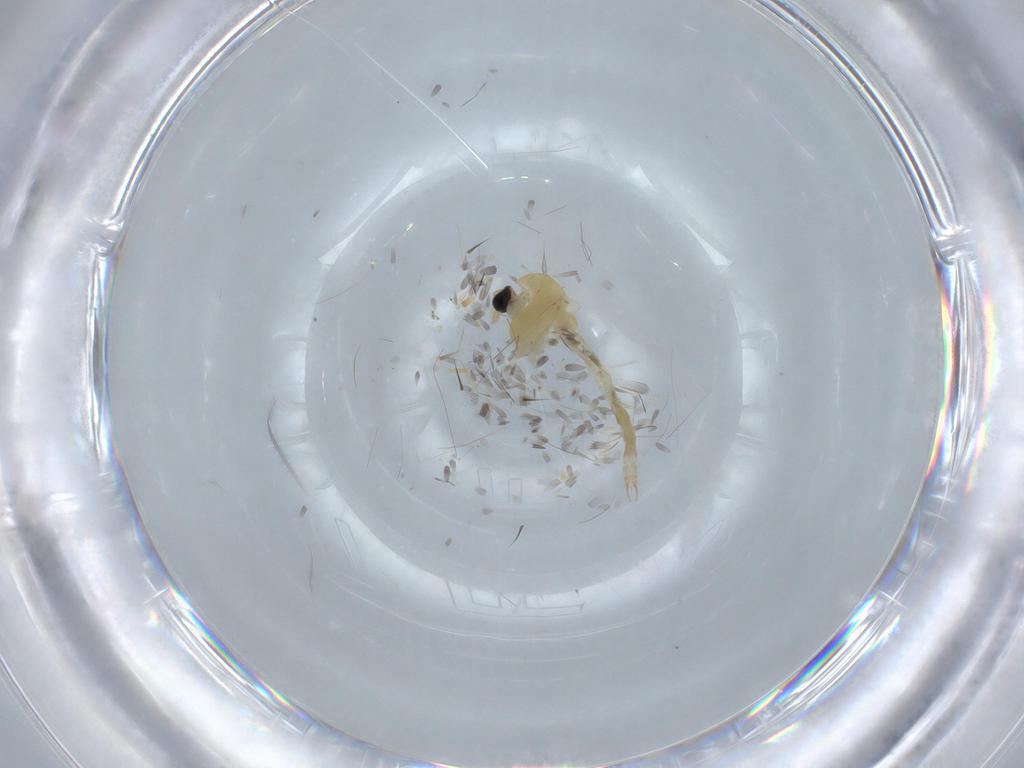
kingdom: Animalia
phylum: Arthropoda
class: Insecta
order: Diptera
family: Chironomidae
